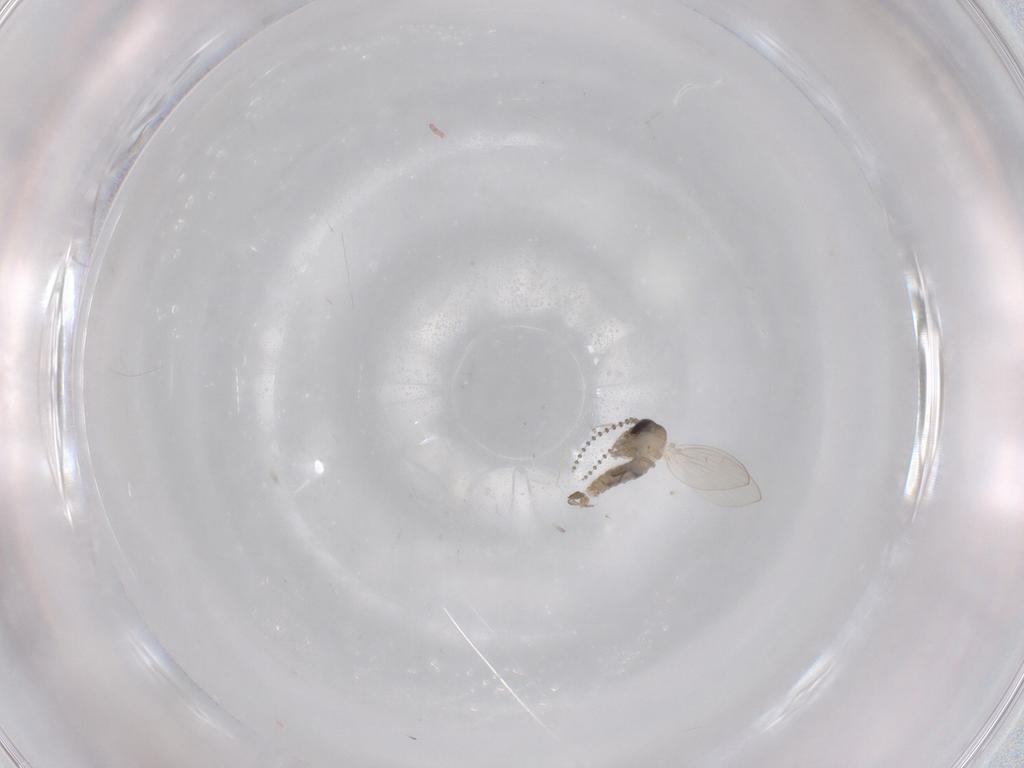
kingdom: Animalia
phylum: Arthropoda
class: Insecta
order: Diptera
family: Psychodidae
